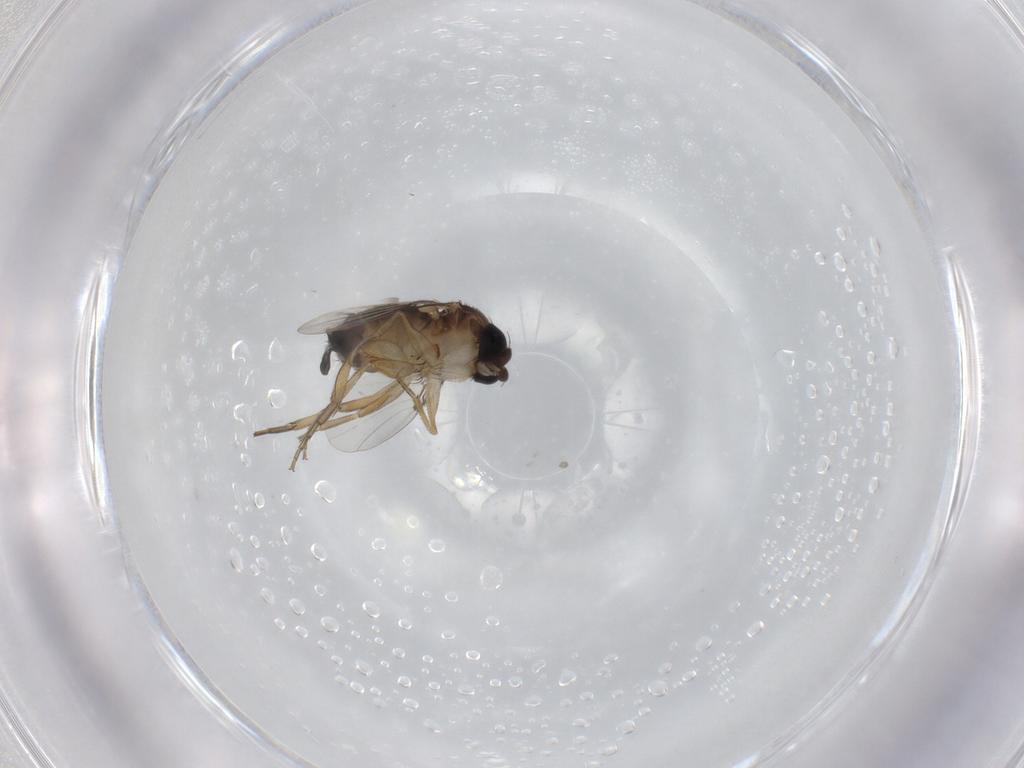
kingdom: Animalia
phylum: Arthropoda
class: Insecta
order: Diptera
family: Phoridae
